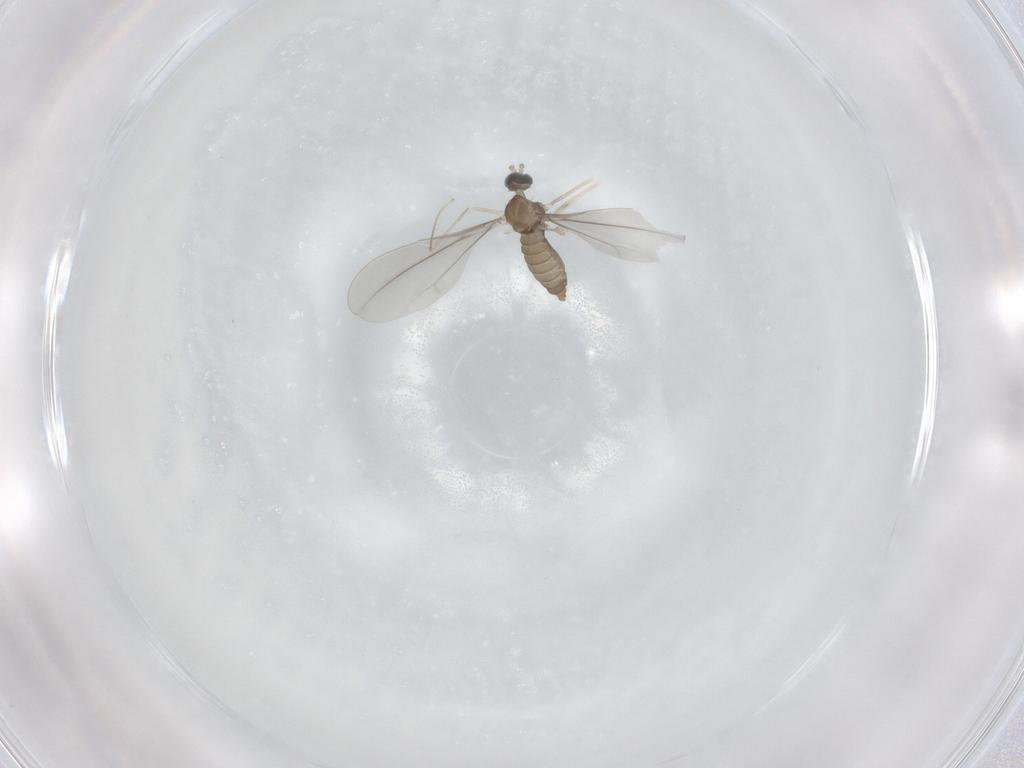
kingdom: Animalia
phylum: Arthropoda
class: Insecta
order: Diptera
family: Cecidomyiidae
